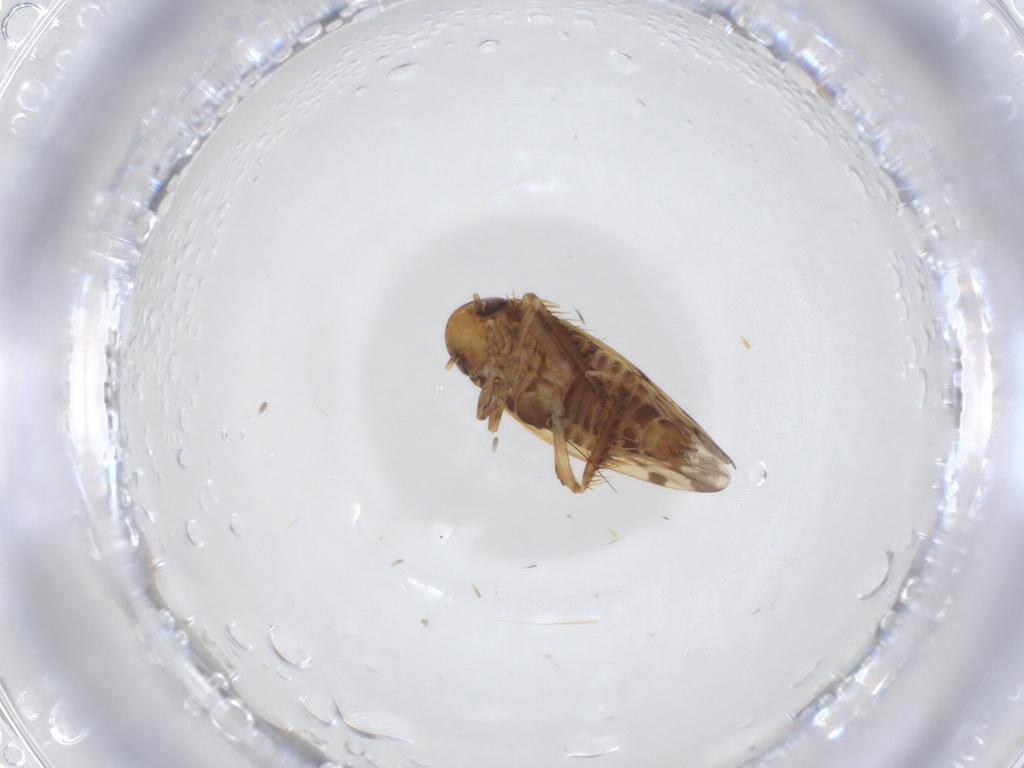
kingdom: Animalia
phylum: Arthropoda
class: Insecta
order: Hemiptera
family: Cicadellidae
